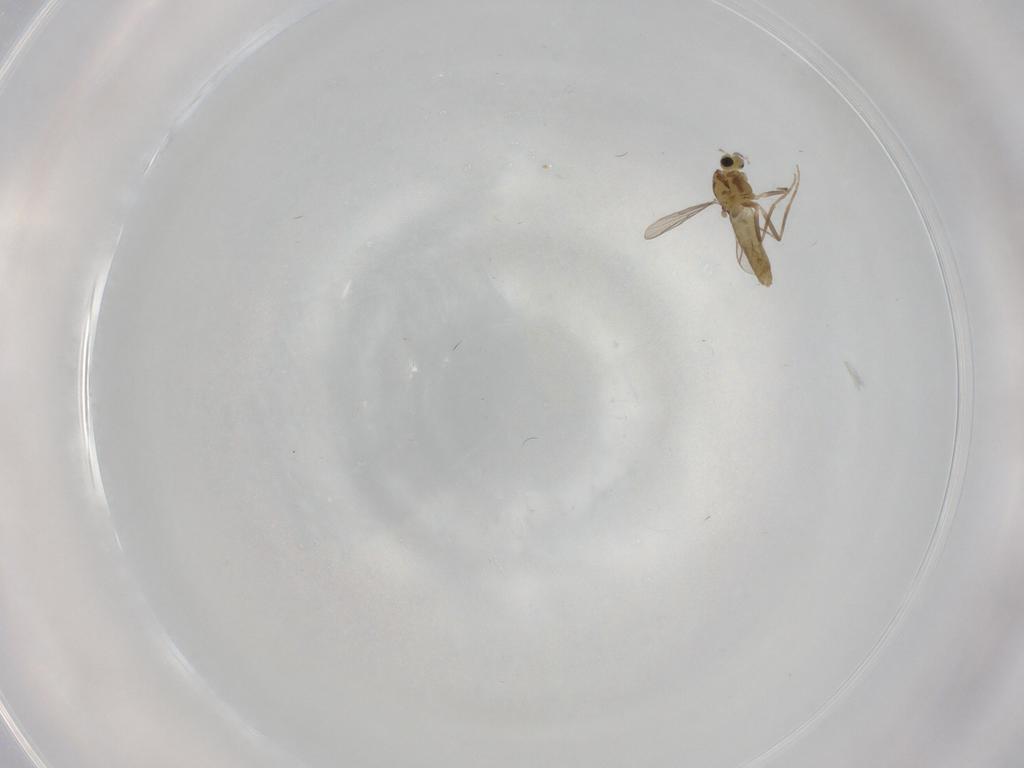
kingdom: Animalia
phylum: Arthropoda
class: Insecta
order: Diptera
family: Chironomidae
